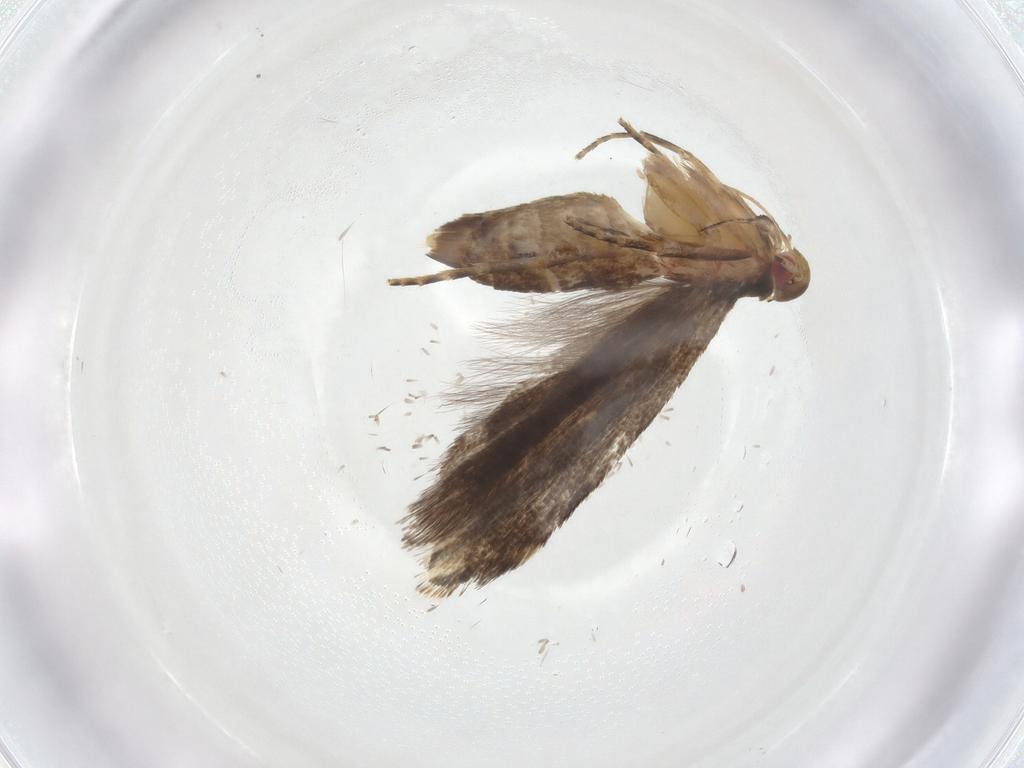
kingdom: Animalia
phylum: Arthropoda
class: Insecta
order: Lepidoptera
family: Gelechiidae
